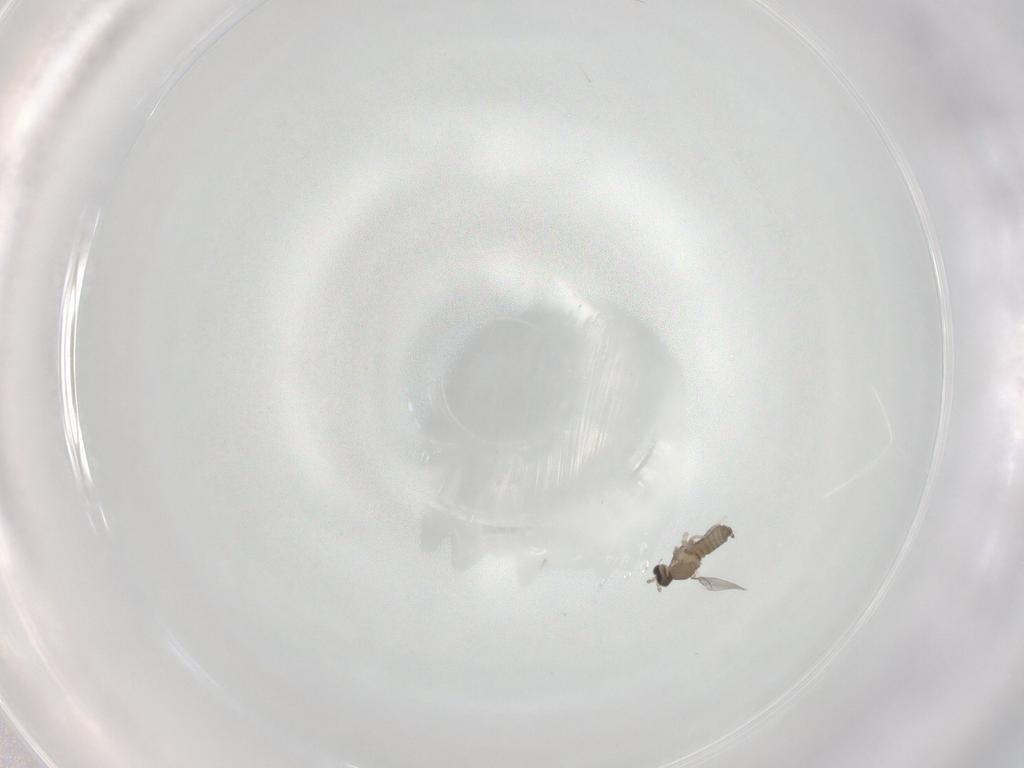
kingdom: Animalia
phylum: Arthropoda
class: Insecta
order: Diptera
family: Cecidomyiidae
